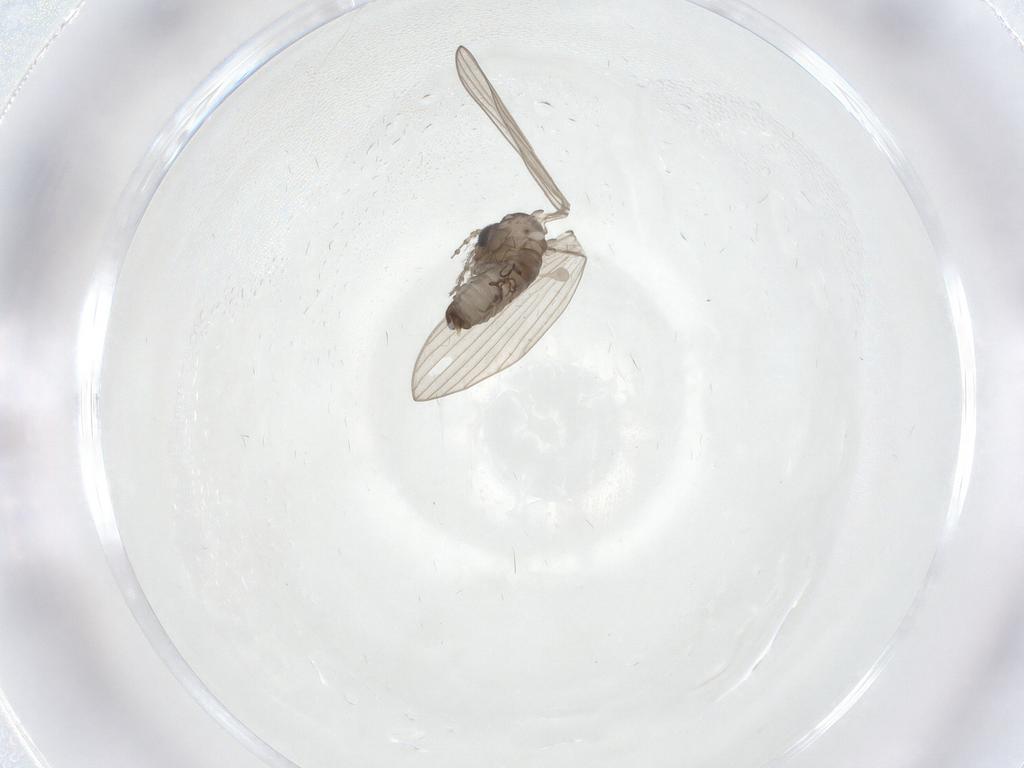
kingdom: Animalia
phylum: Arthropoda
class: Insecta
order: Diptera
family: Psychodidae
